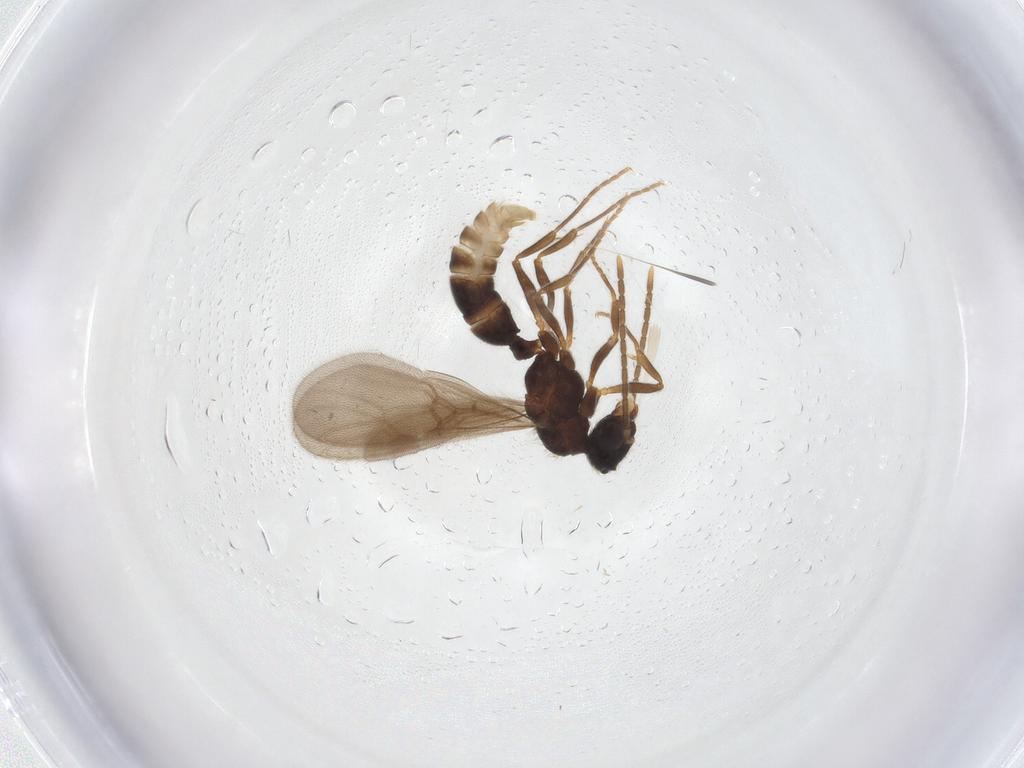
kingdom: Animalia
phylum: Arthropoda
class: Insecta
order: Hymenoptera
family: Formicidae
